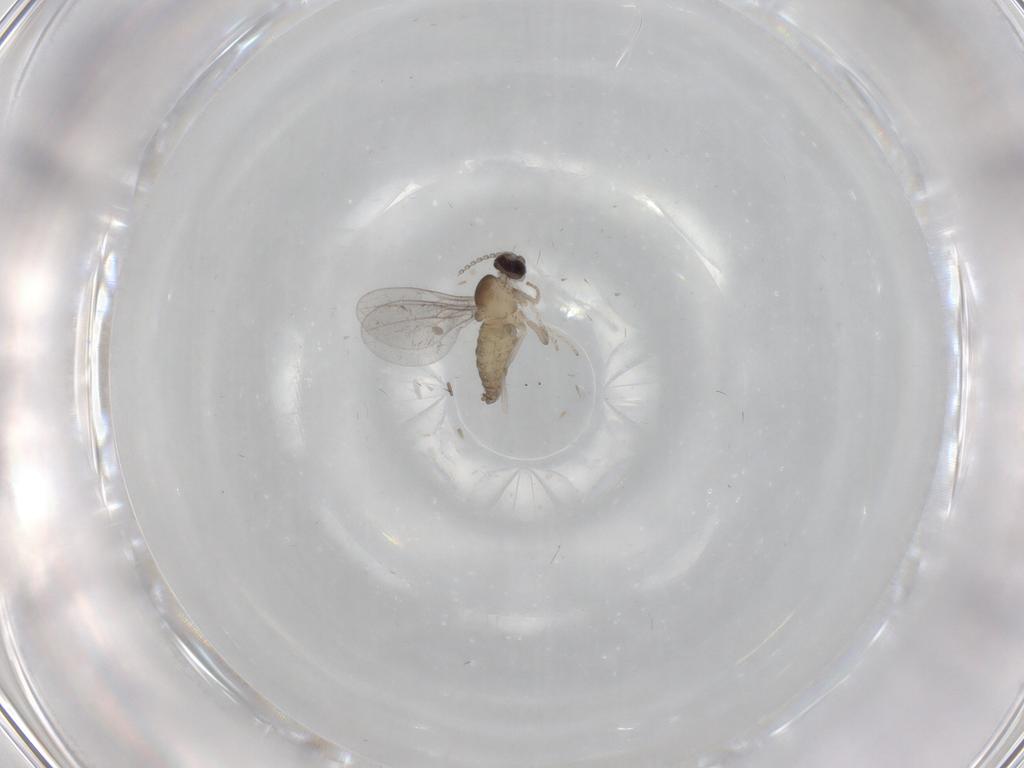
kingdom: Animalia
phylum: Arthropoda
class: Insecta
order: Diptera
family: Cecidomyiidae
